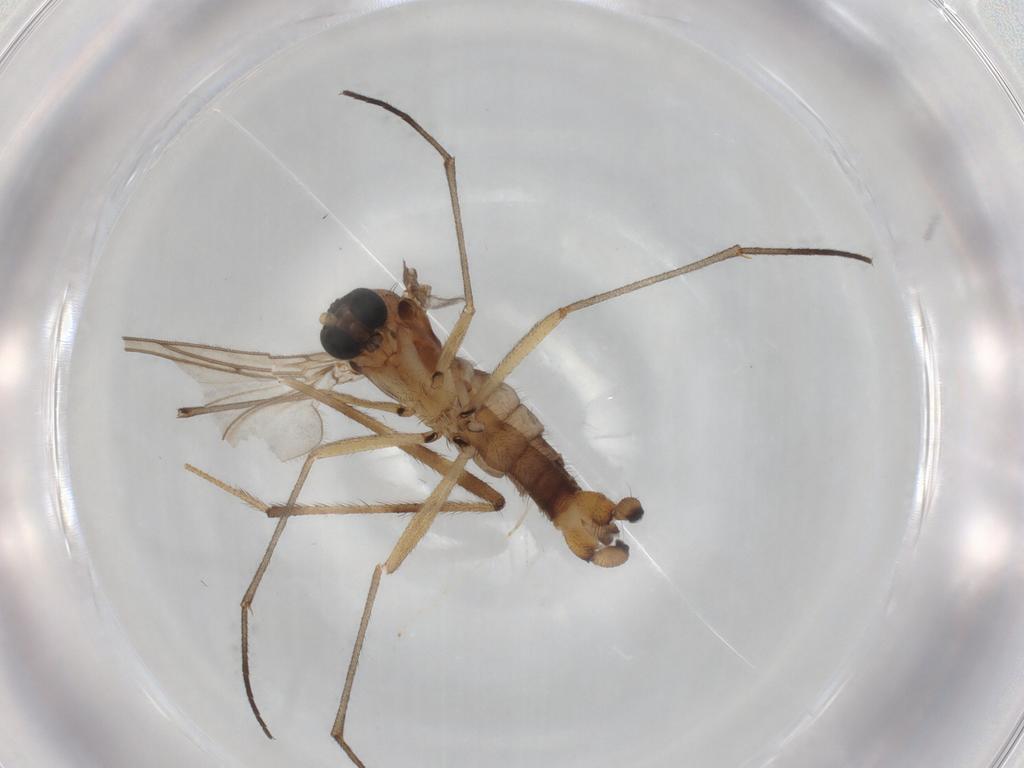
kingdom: Animalia
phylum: Arthropoda
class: Insecta
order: Diptera
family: Sciaridae
